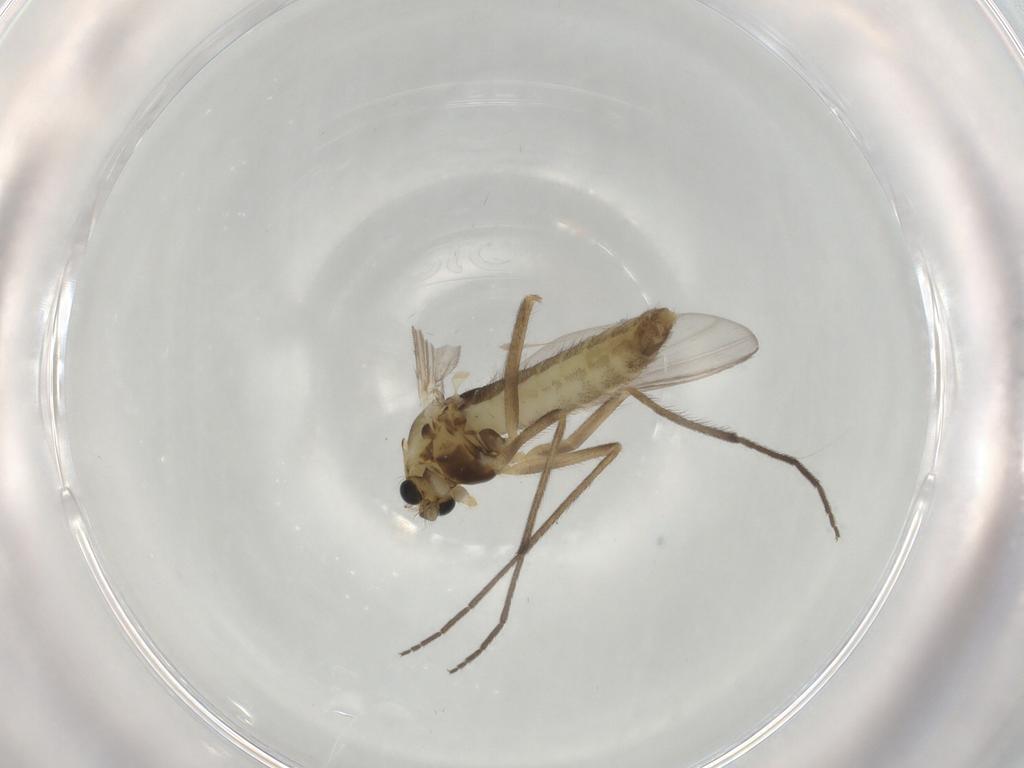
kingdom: Animalia
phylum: Arthropoda
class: Insecta
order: Diptera
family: Chironomidae
